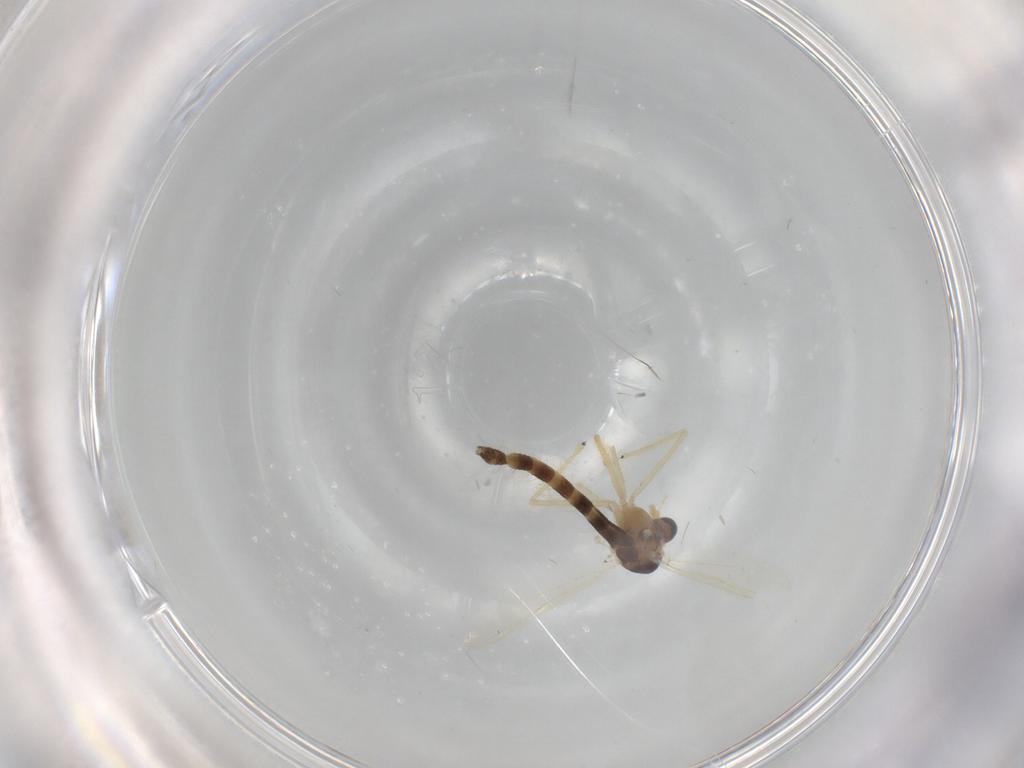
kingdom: Animalia
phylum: Arthropoda
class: Insecta
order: Diptera
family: Chironomidae
